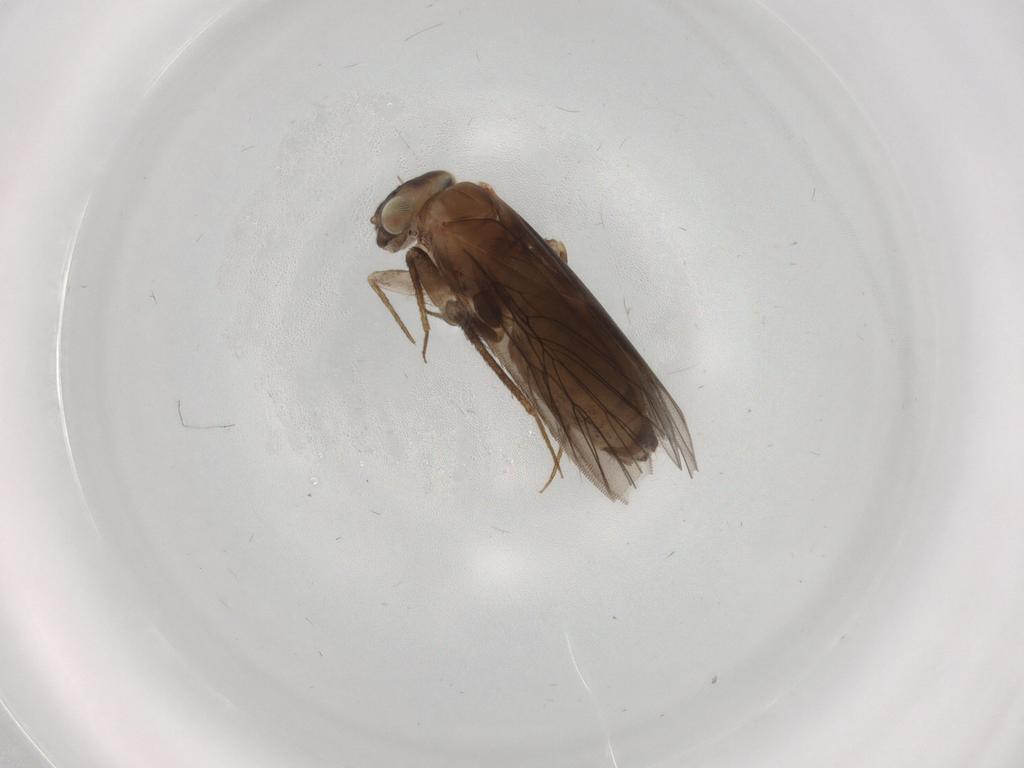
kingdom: Animalia
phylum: Arthropoda
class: Insecta
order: Psocodea
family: Lepidopsocidae
